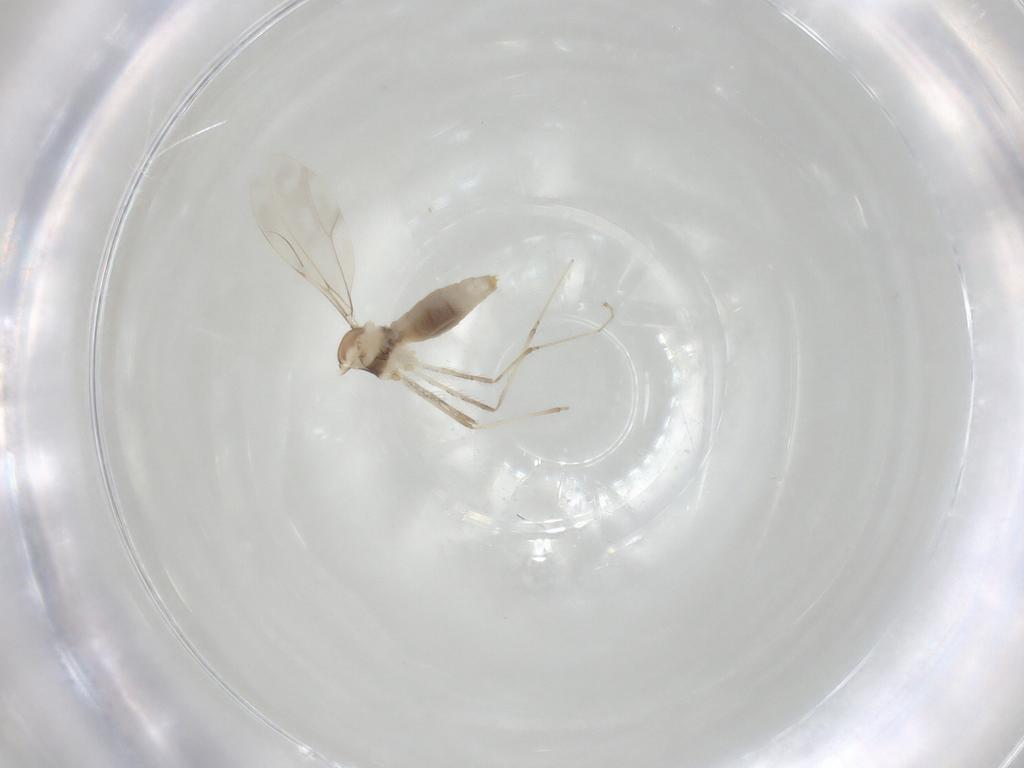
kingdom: Animalia
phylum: Arthropoda
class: Insecta
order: Diptera
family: Cecidomyiidae
